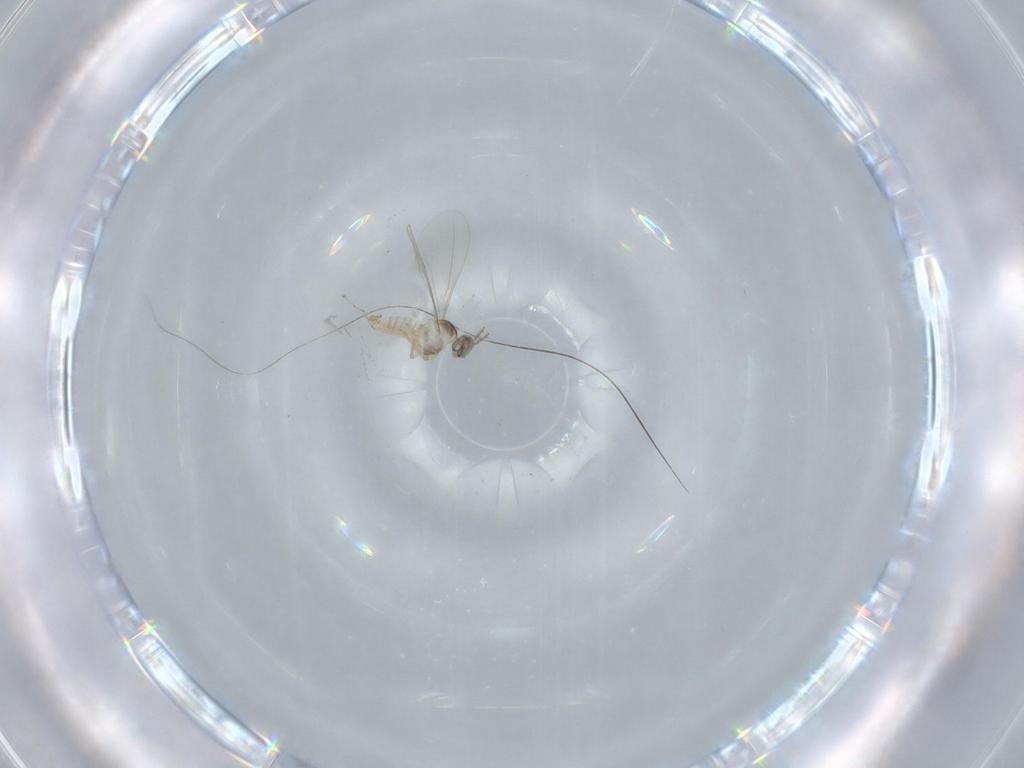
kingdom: Animalia
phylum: Arthropoda
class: Insecta
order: Diptera
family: Cecidomyiidae
